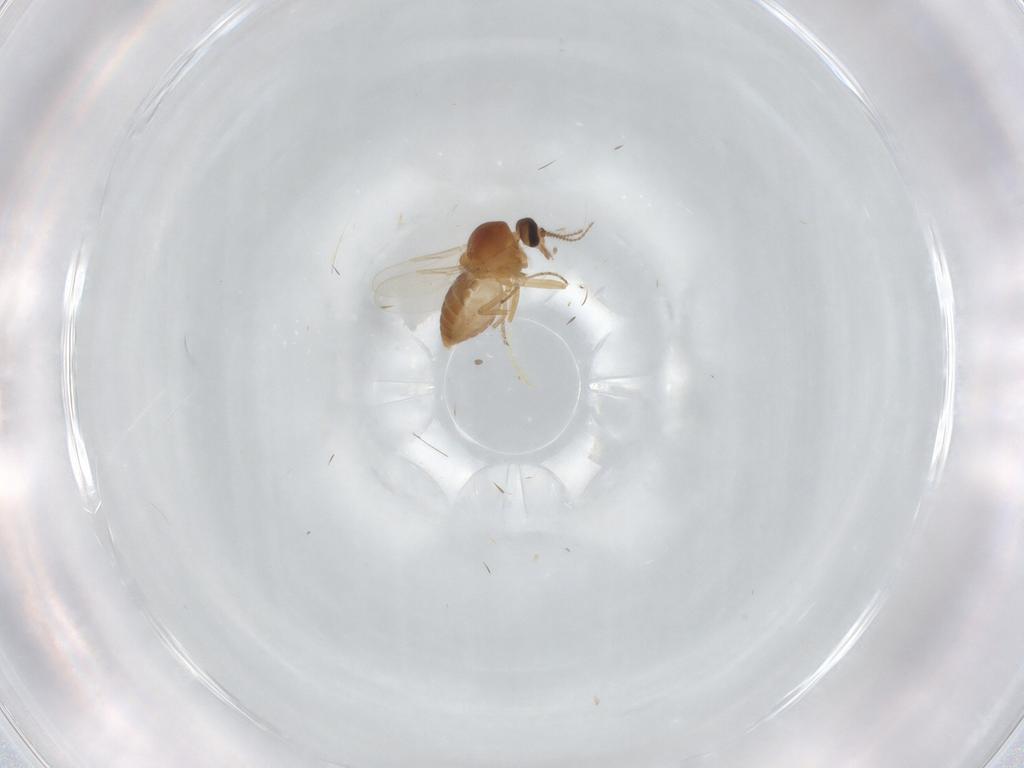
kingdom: Animalia
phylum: Arthropoda
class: Insecta
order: Diptera
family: Ceratopogonidae
